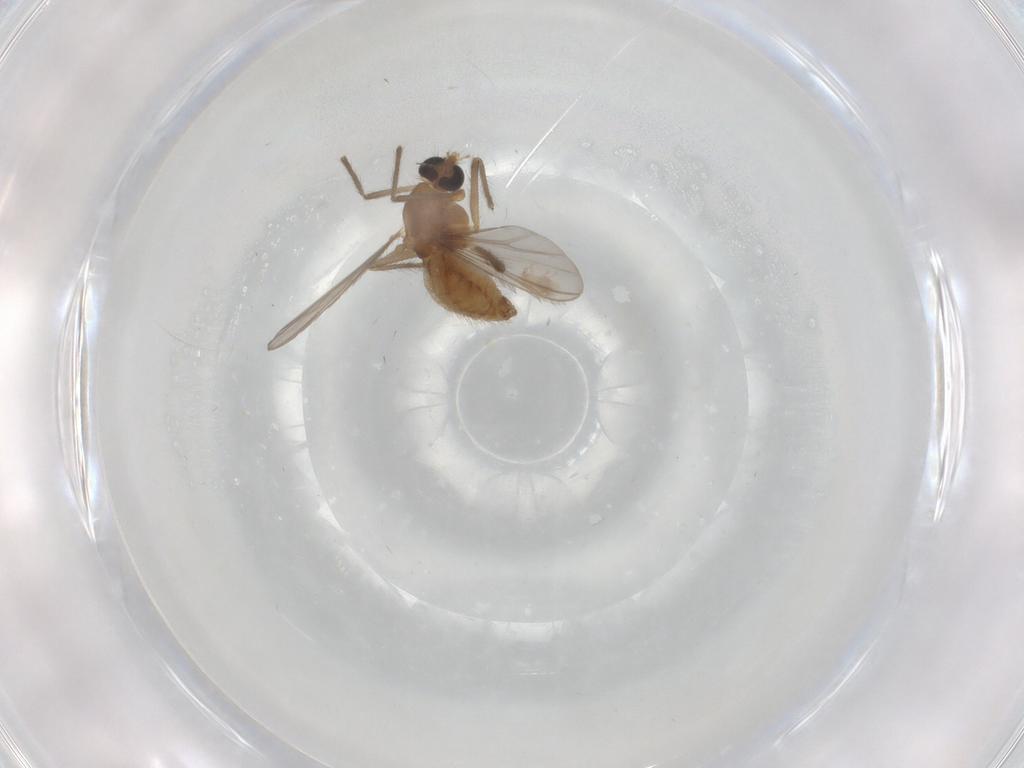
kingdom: Animalia
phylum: Arthropoda
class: Insecta
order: Diptera
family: Chironomidae
